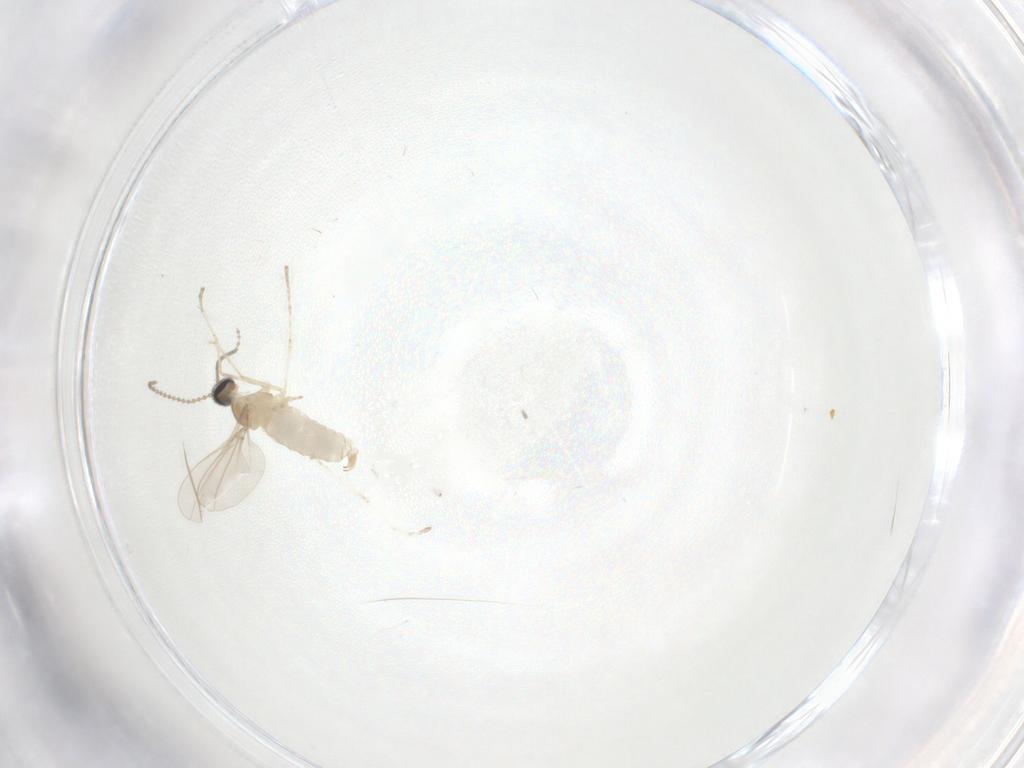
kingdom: Animalia
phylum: Arthropoda
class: Insecta
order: Diptera
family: Cecidomyiidae
